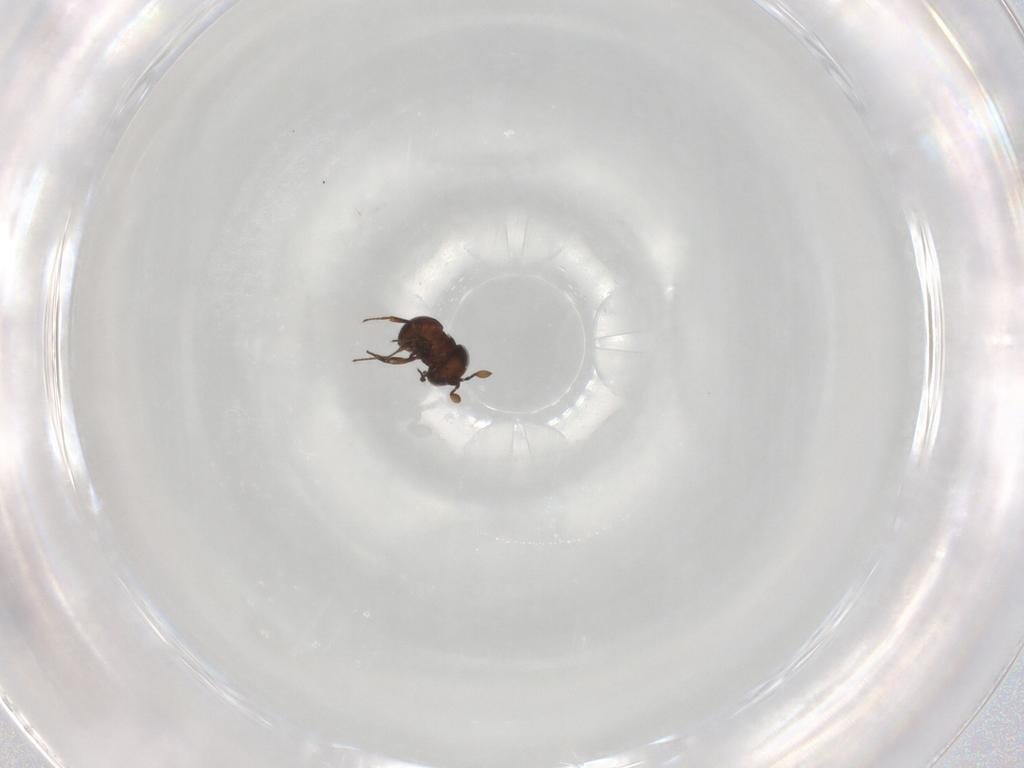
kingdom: Animalia
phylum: Arthropoda
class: Insecta
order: Hymenoptera
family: Scelionidae
